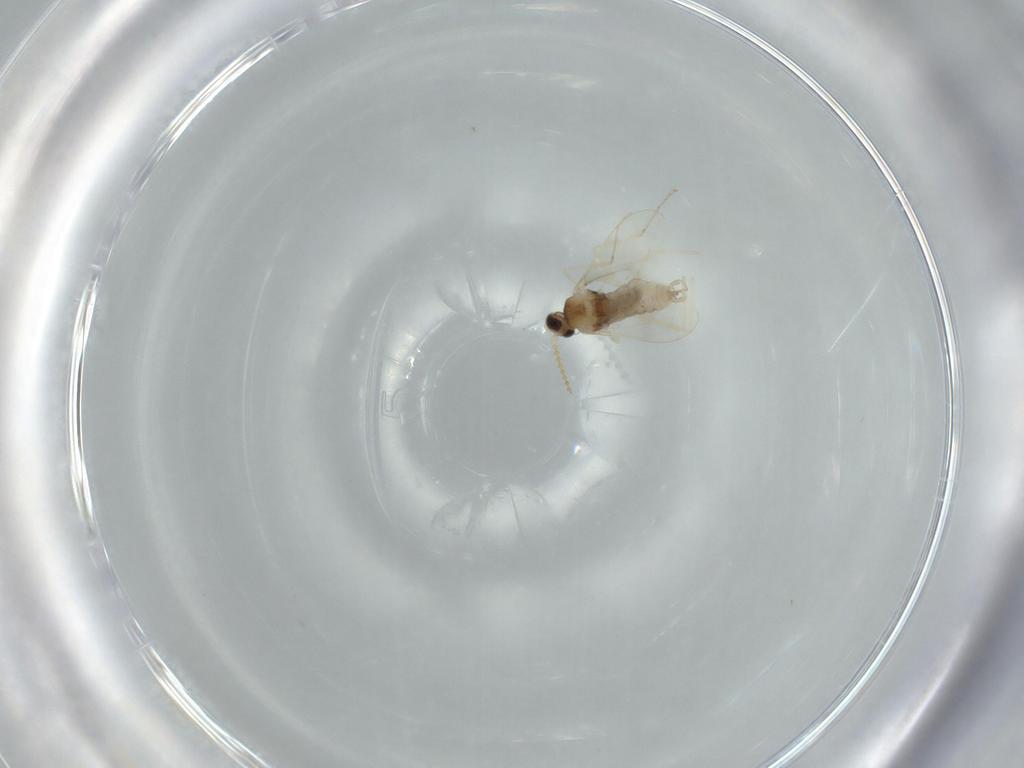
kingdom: Animalia
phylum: Arthropoda
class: Insecta
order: Diptera
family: Cecidomyiidae
